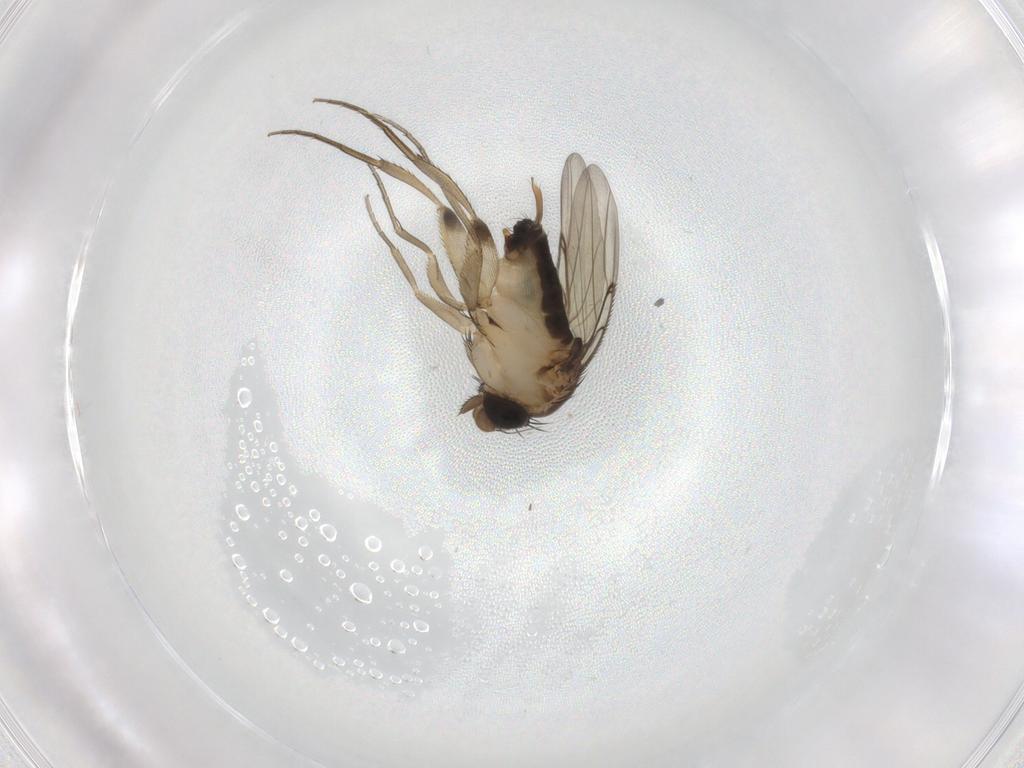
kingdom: Animalia
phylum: Arthropoda
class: Insecta
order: Diptera
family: Phoridae
